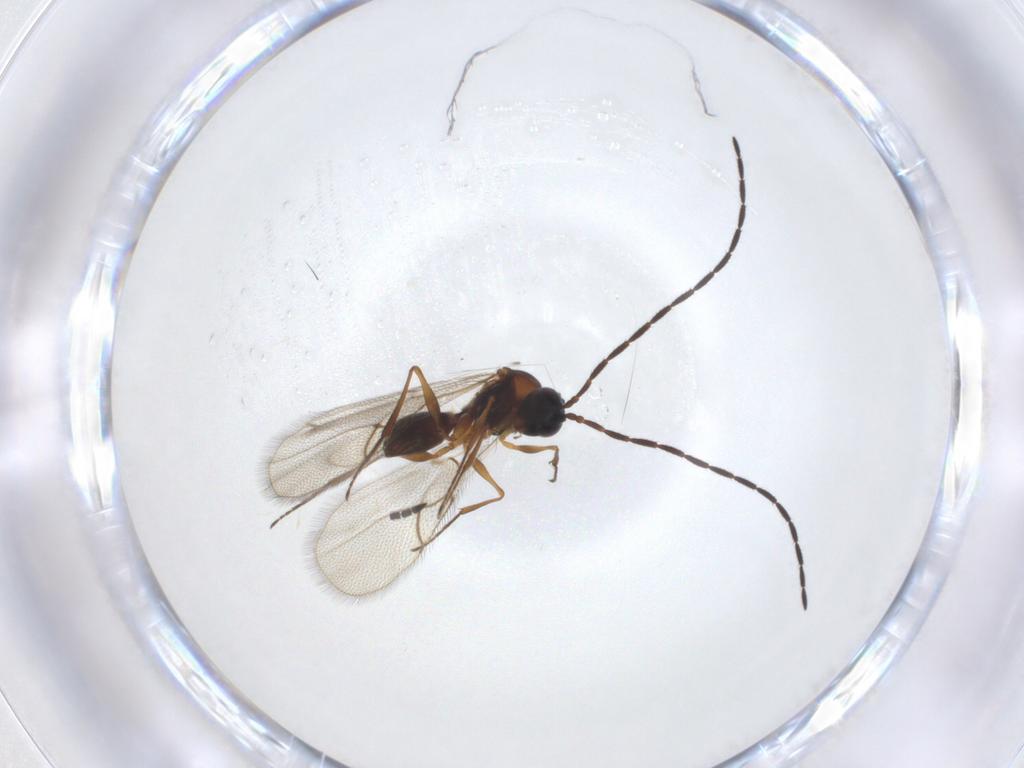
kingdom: Animalia
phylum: Arthropoda
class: Insecta
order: Hymenoptera
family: Figitidae
